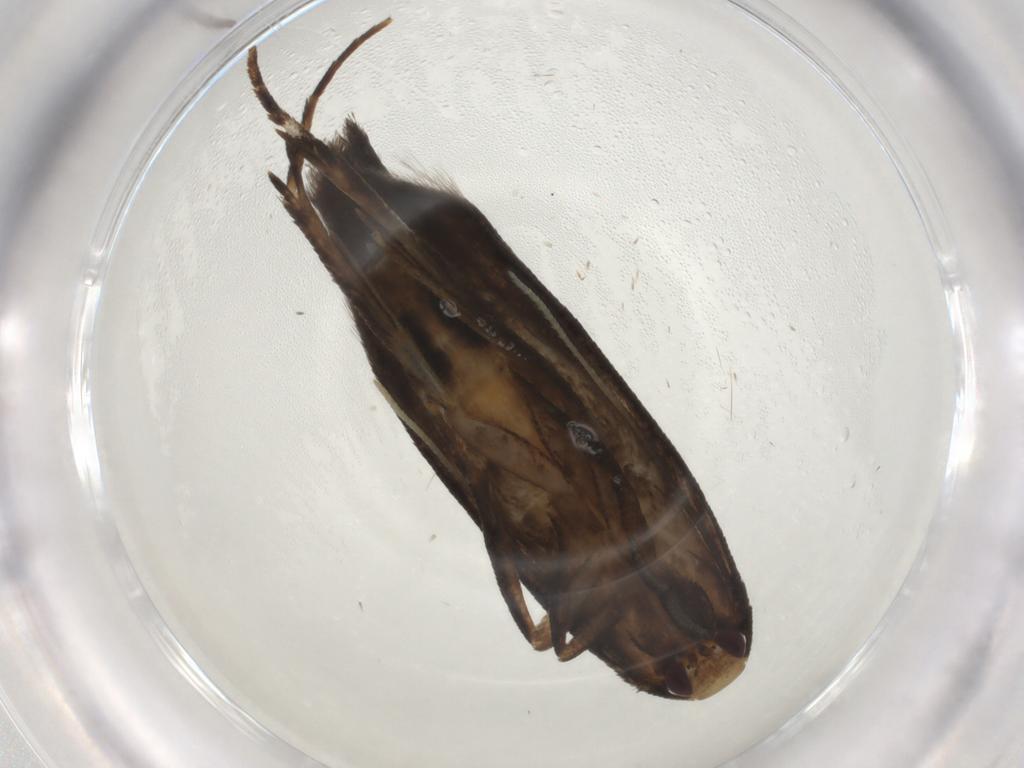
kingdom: Animalia
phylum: Arthropoda
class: Insecta
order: Lepidoptera
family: Gelechiidae
